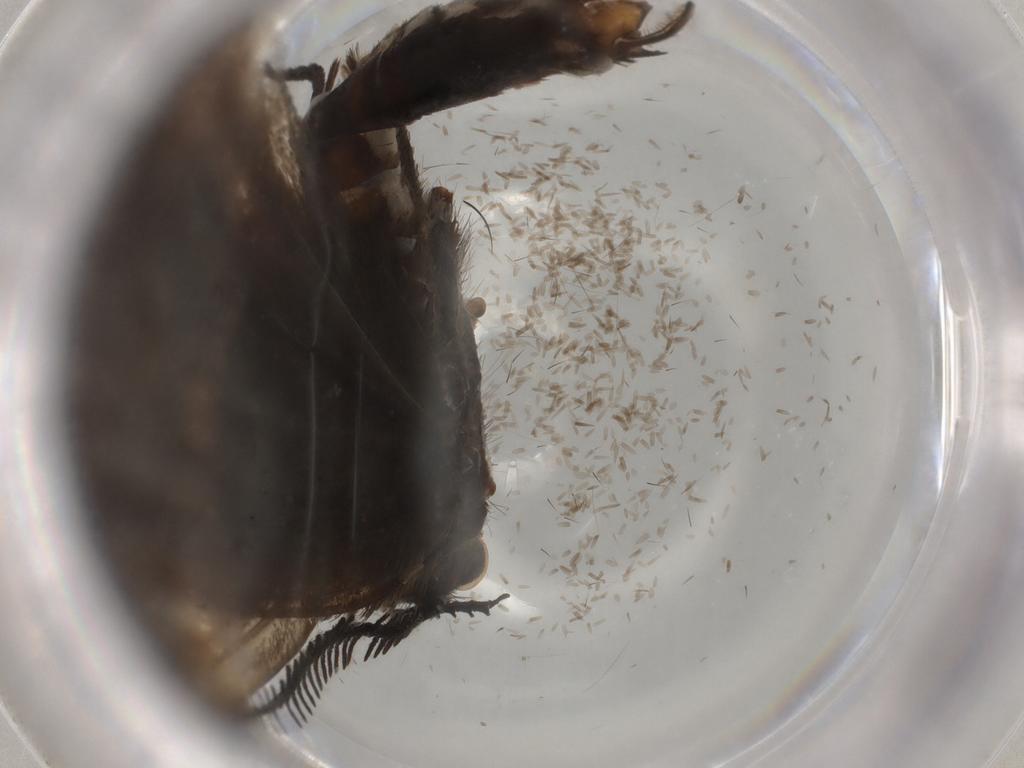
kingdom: Animalia
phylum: Arthropoda
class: Insecta
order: Lepidoptera
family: Geometridae
